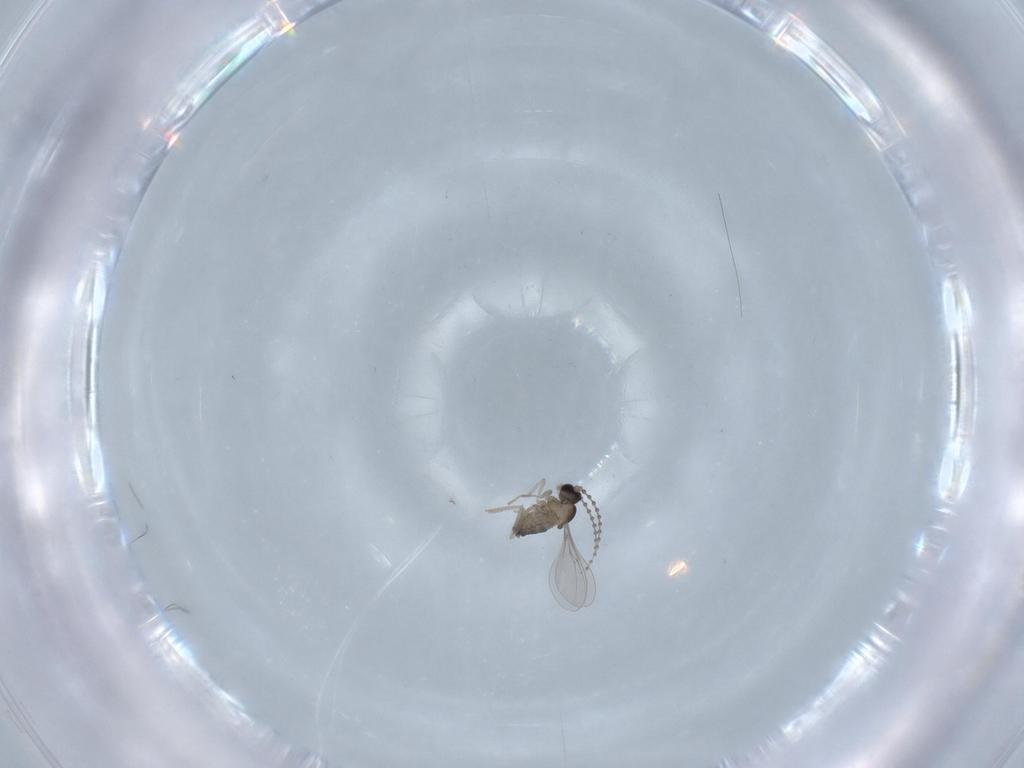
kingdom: Animalia
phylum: Arthropoda
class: Insecta
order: Diptera
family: Cecidomyiidae
